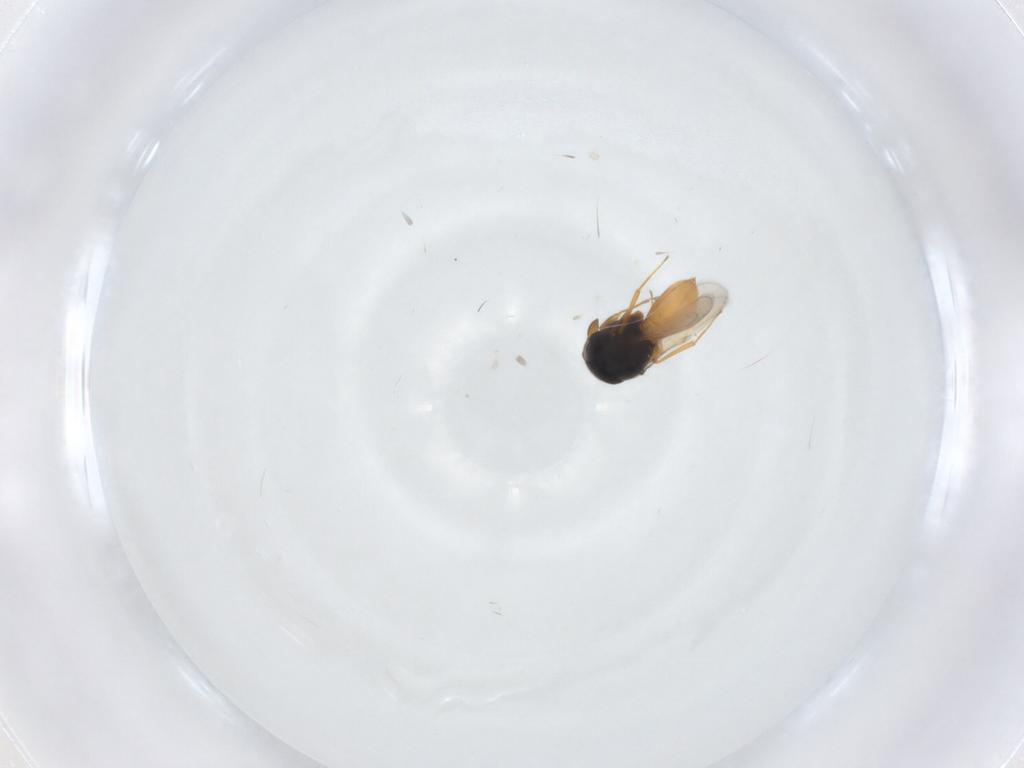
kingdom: Animalia
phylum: Arthropoda
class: Insecta
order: Hymenoptera
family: Scelionidae
